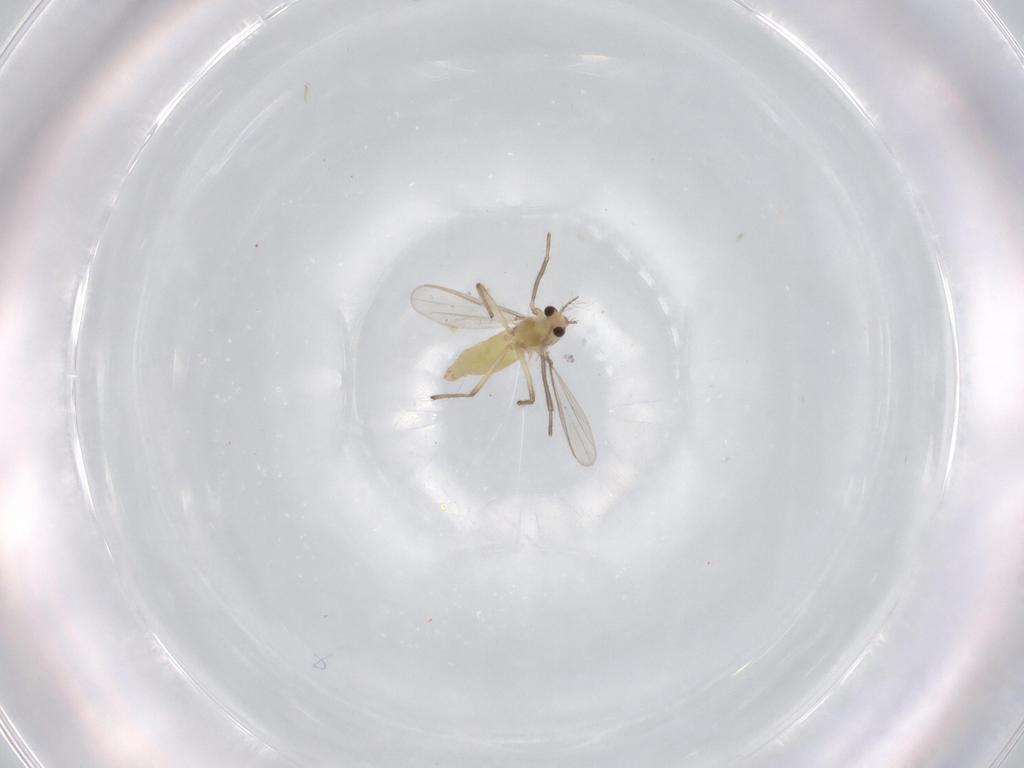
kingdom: Animalia
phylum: Arthropoda
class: Insecta
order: Diptera
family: Chironomidae
